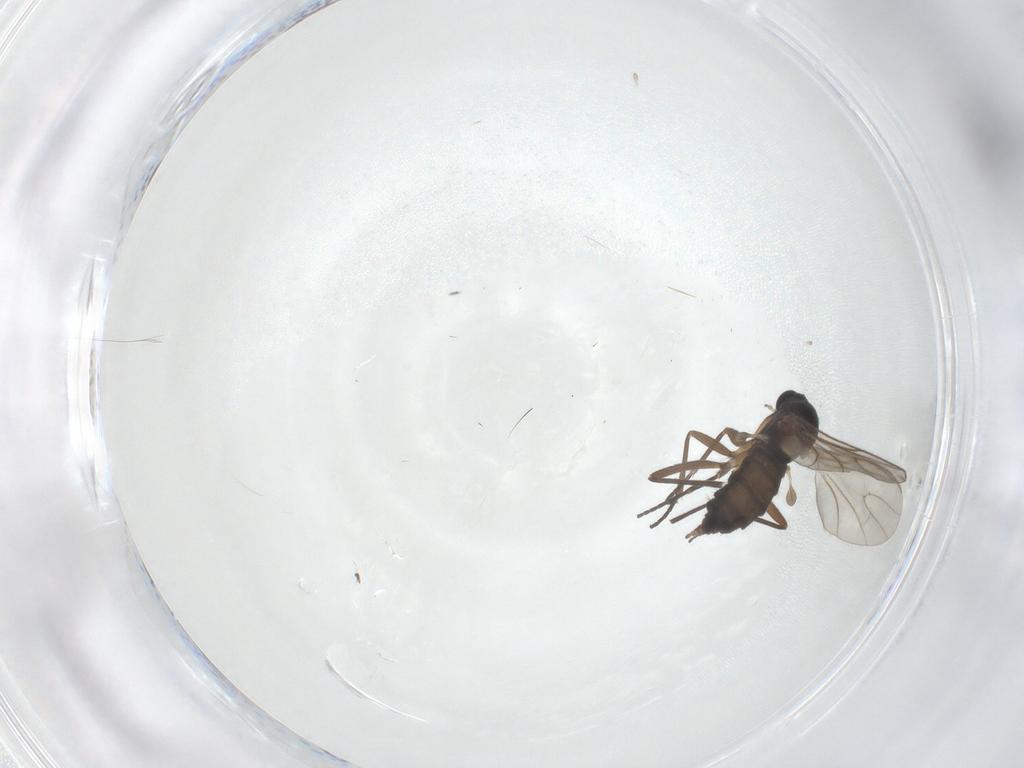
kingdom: Animalia
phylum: Arthropoda
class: Insecta
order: Diptera
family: Sciaridae
